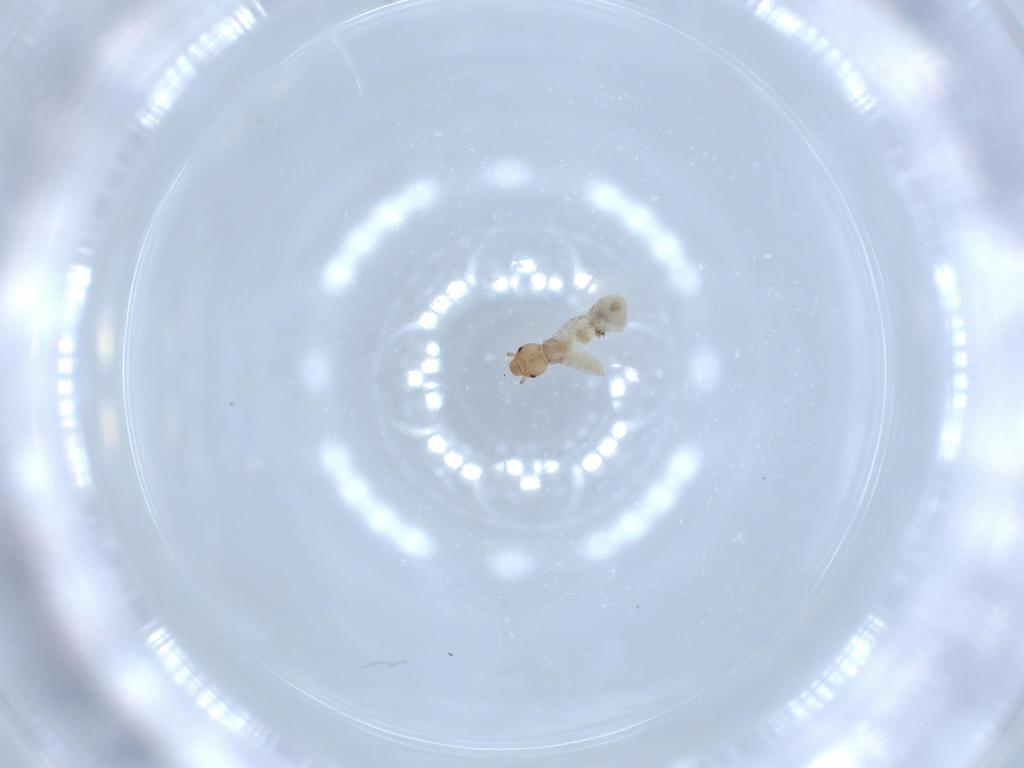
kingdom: Animalia
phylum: Arthropoda
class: Insecta
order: Psocodea
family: Liposcelididae
